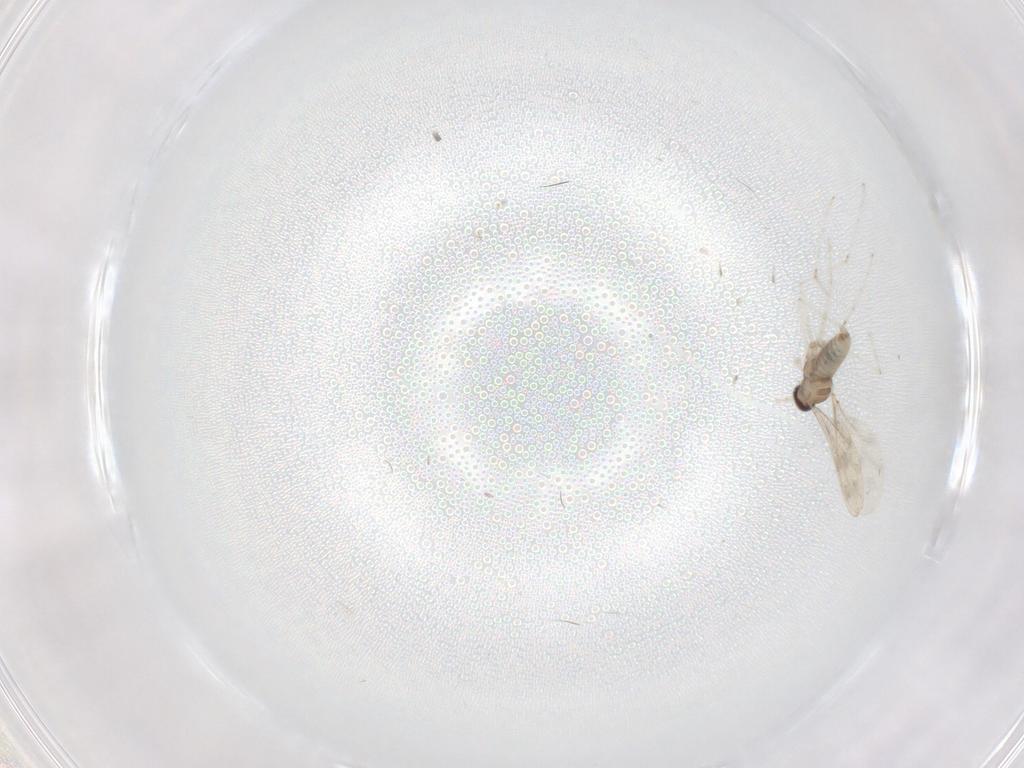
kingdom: Animalia
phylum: Arthropoda
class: Insecta
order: Diptera
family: Cecidomyiidae
